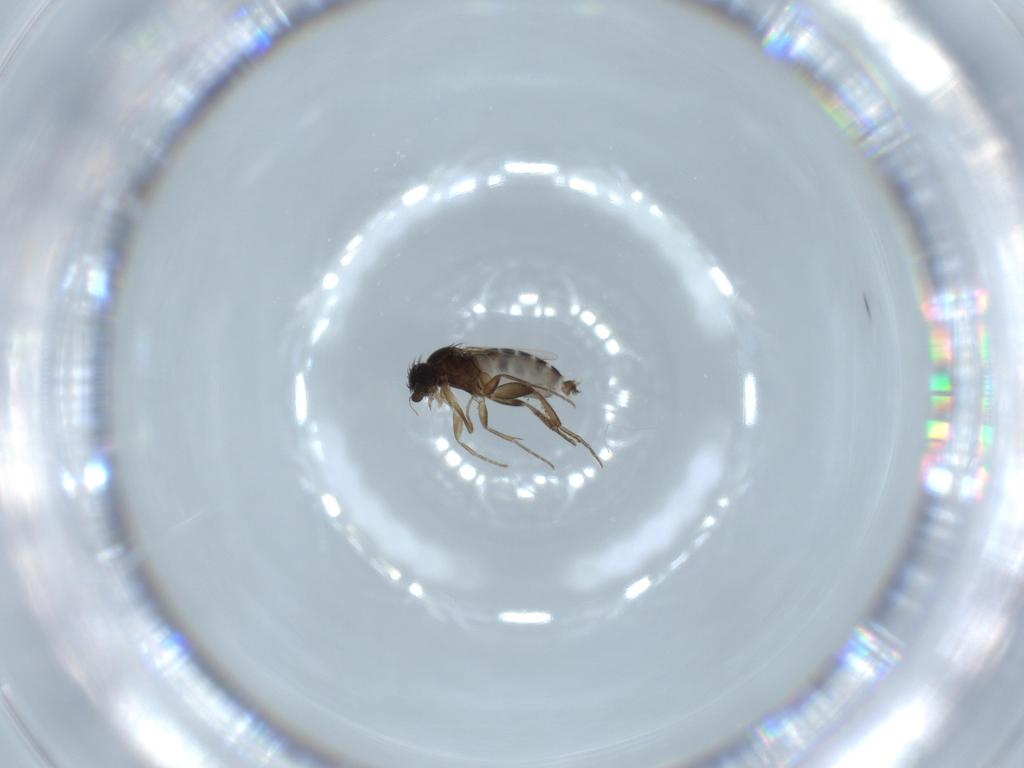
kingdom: Animalia
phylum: Arthropoda
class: Insecta
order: Diptera
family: Phoridae
